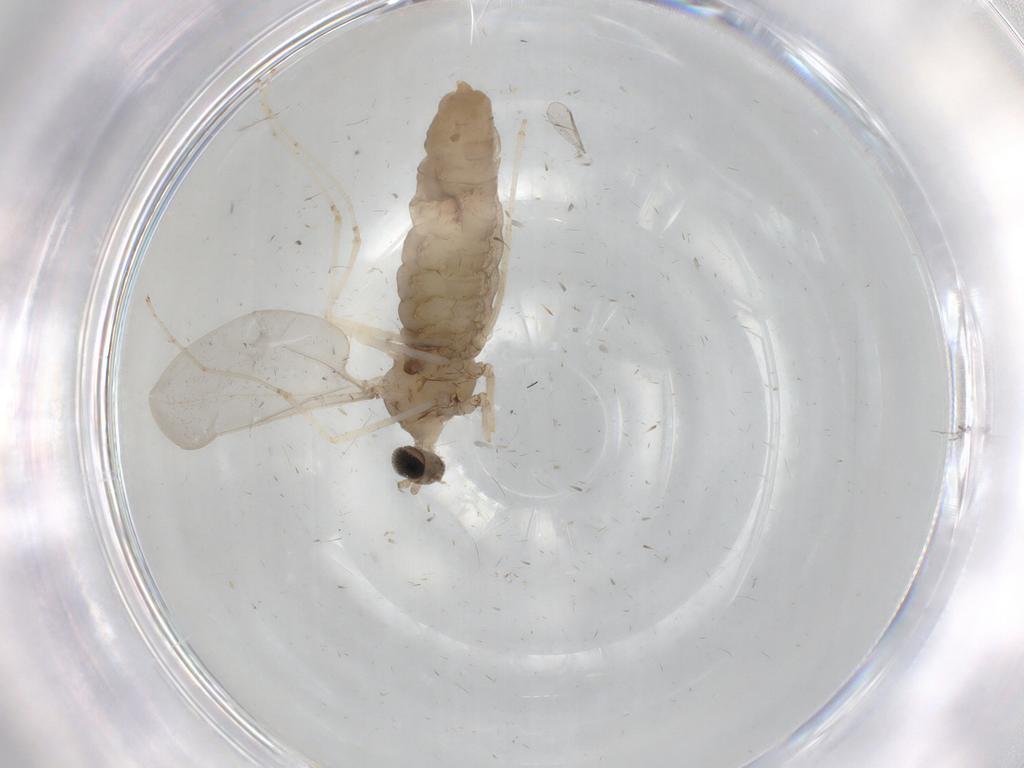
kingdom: Animalia
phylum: Arthropoda
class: Insecta
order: Diptera
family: Cecidomyiidae
